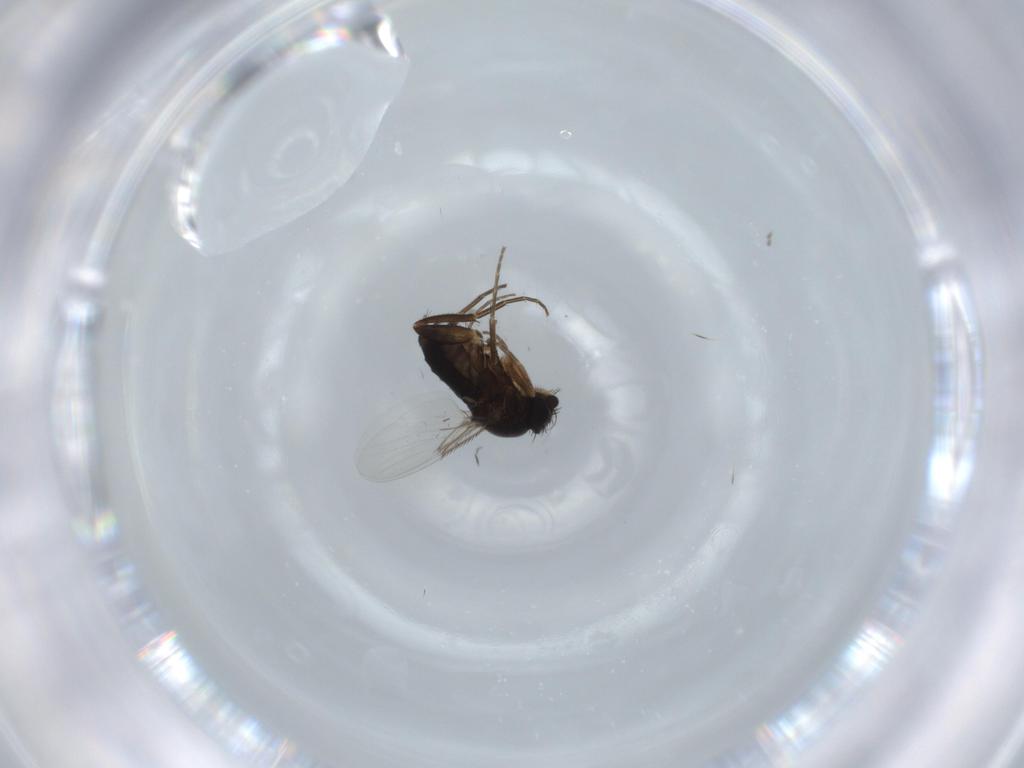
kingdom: Animalia
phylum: Arthropoda
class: Insecta
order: Diptera
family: Phoridae
